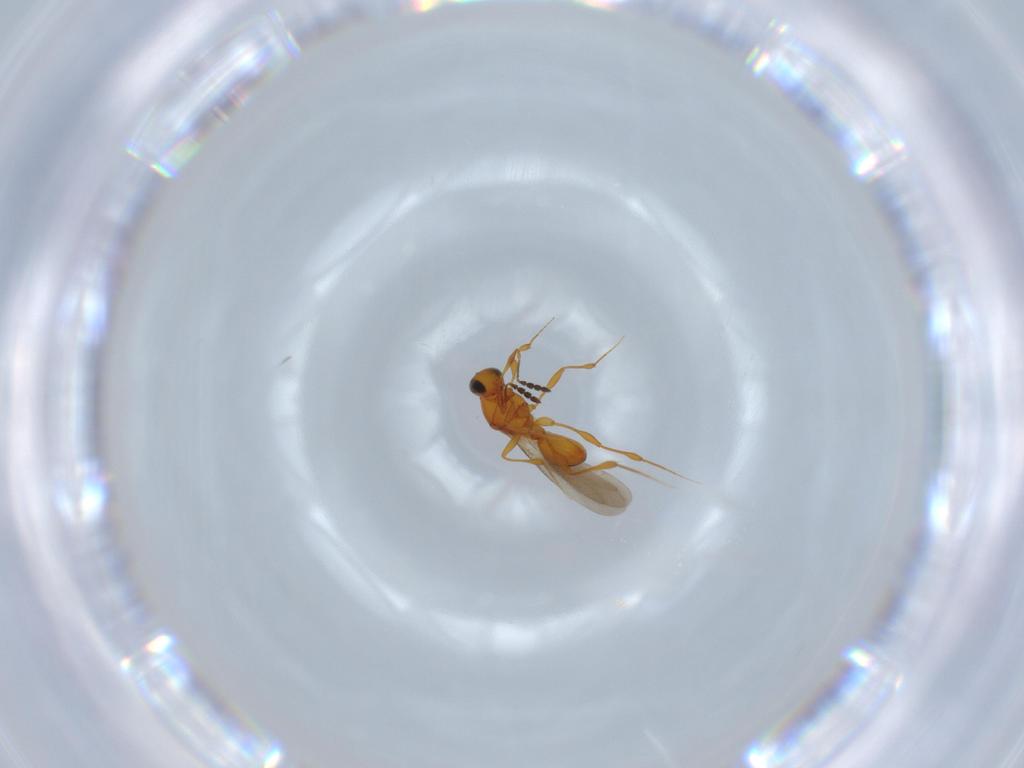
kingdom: Animalia
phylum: Arthropoda
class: Insecta
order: Hymenoptera
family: Platygastridae
